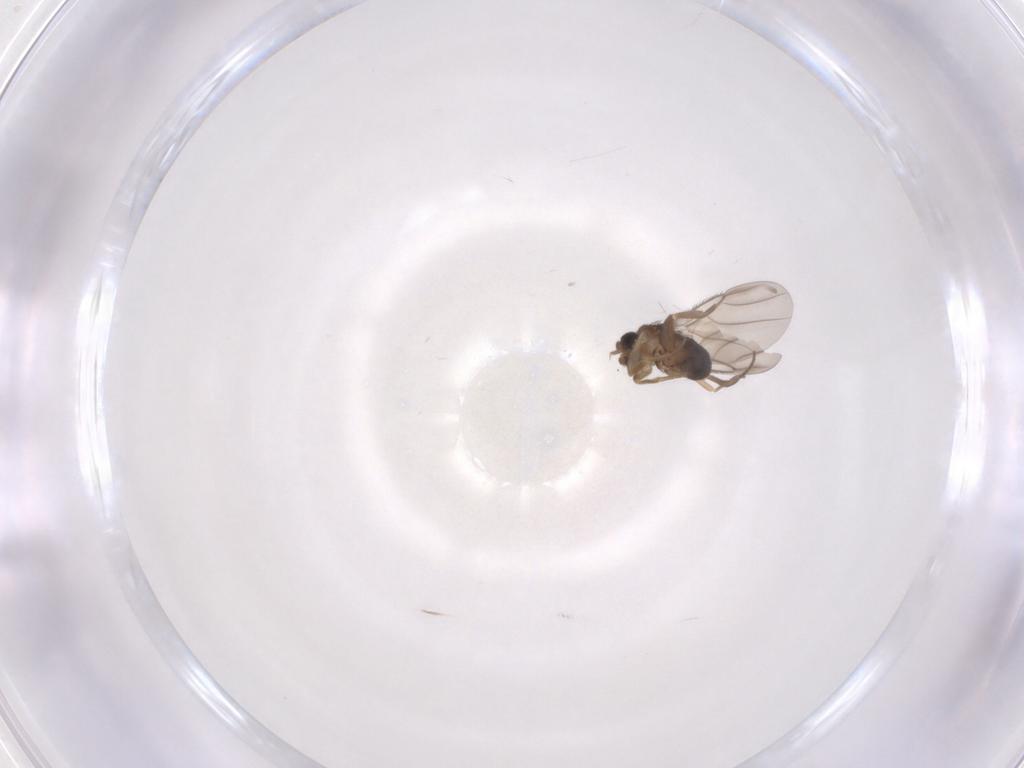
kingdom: Animalia
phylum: Arthropoda
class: Insecta
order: Diptera
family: Phoridae
